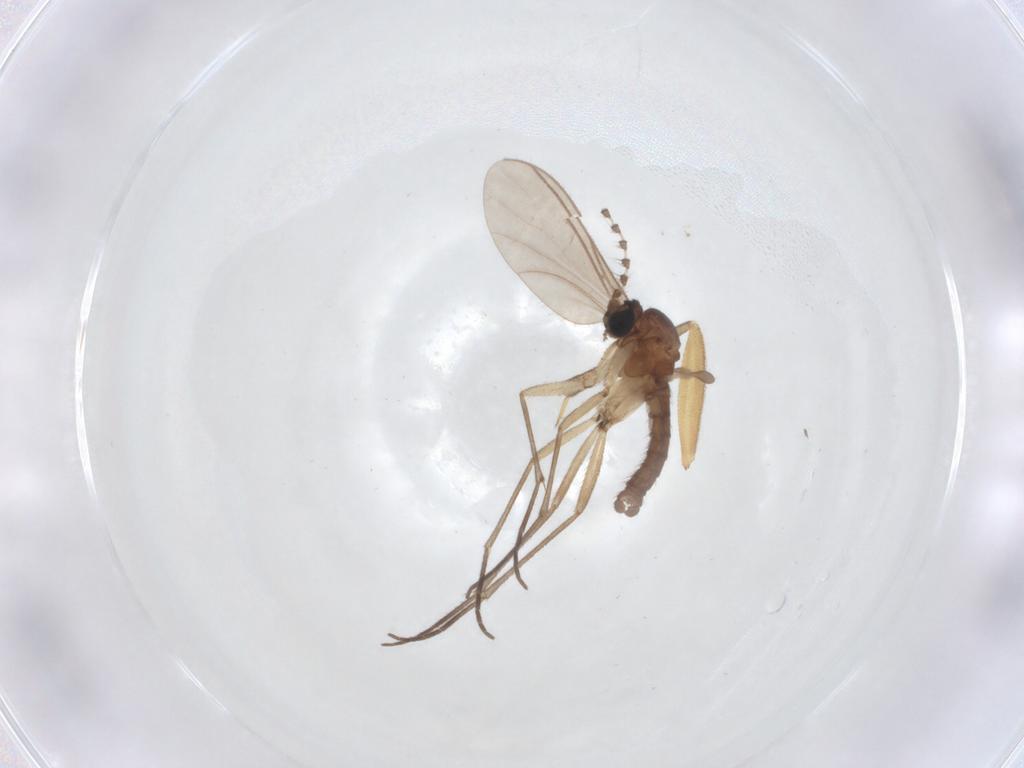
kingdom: Animalia
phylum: Arthropoda
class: Insecta
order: Diptera
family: Sciaridae
